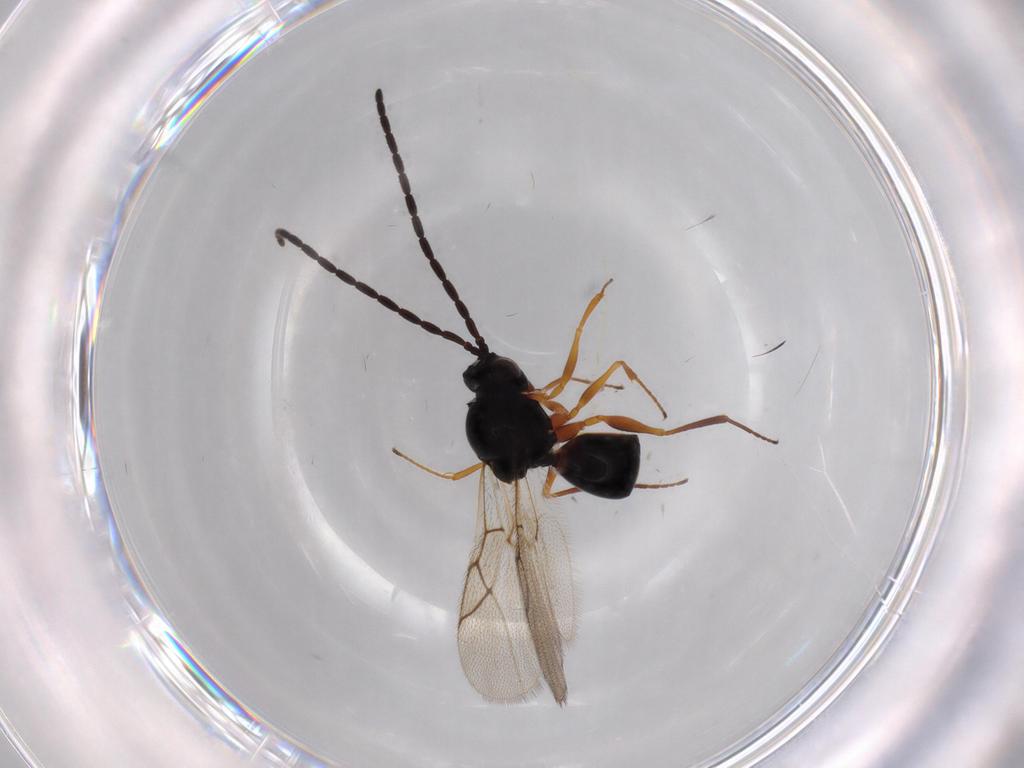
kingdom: Animalia
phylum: Arthropoda
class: Insecta
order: Hymenoptera
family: Figitidae
